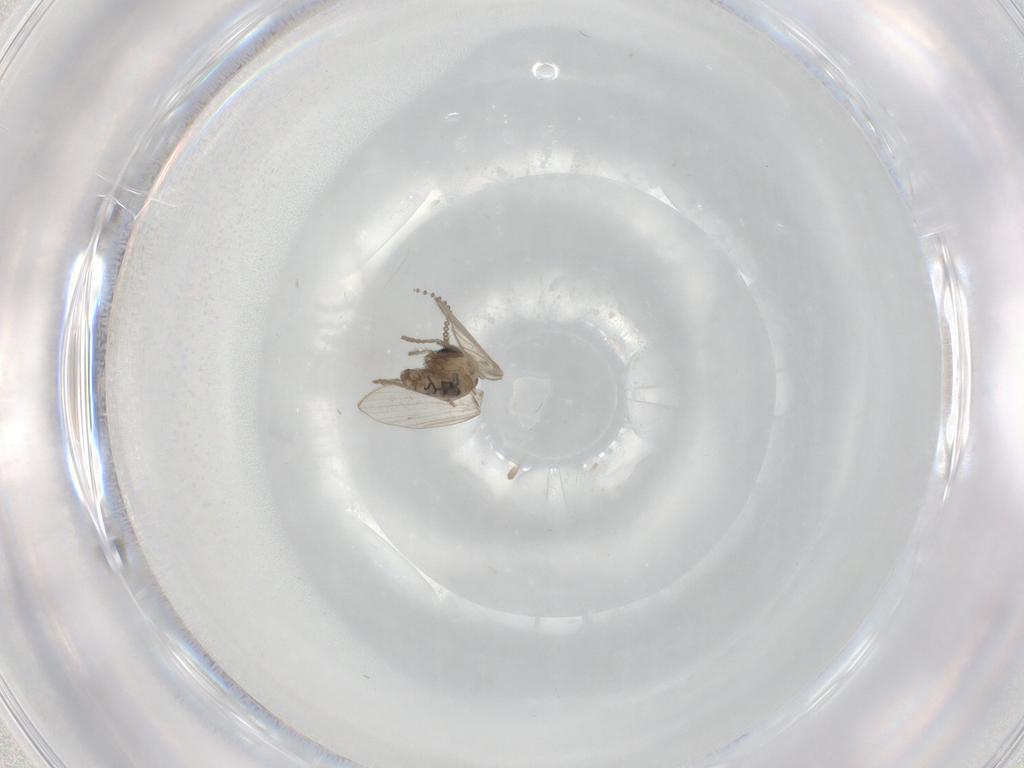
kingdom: Animalia
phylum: Arthropoda
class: Insecta
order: Diptera
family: Psychodidae
